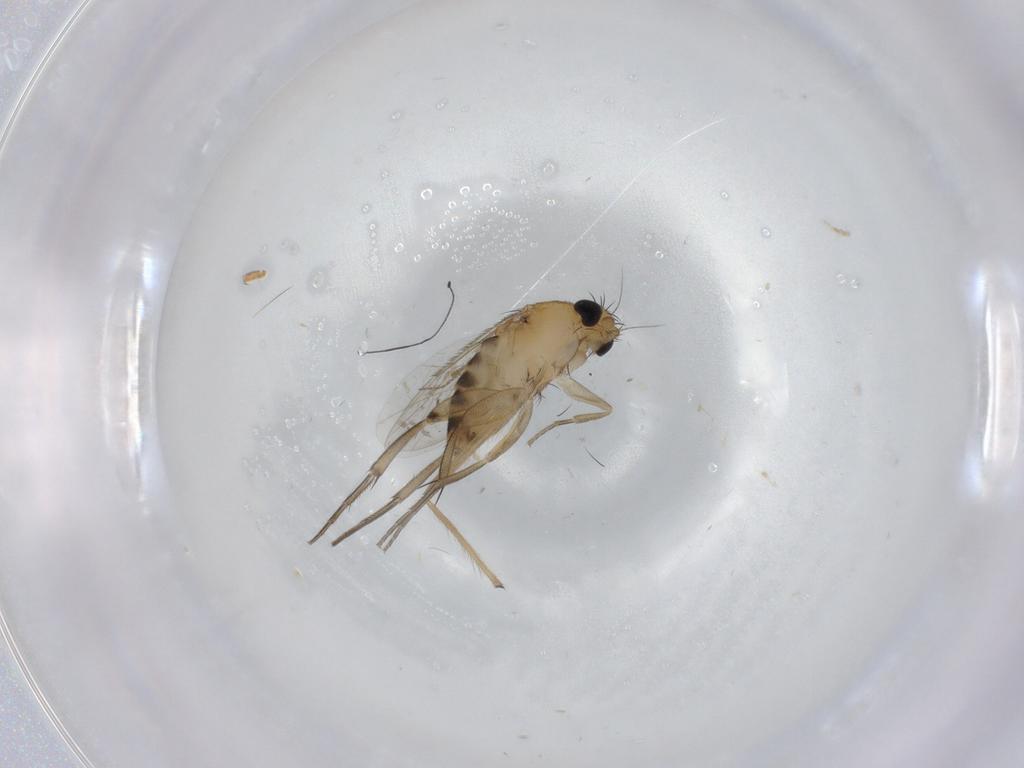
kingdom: Animalia
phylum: Arthropoda
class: Insecta
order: Diptera
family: Phoridae
